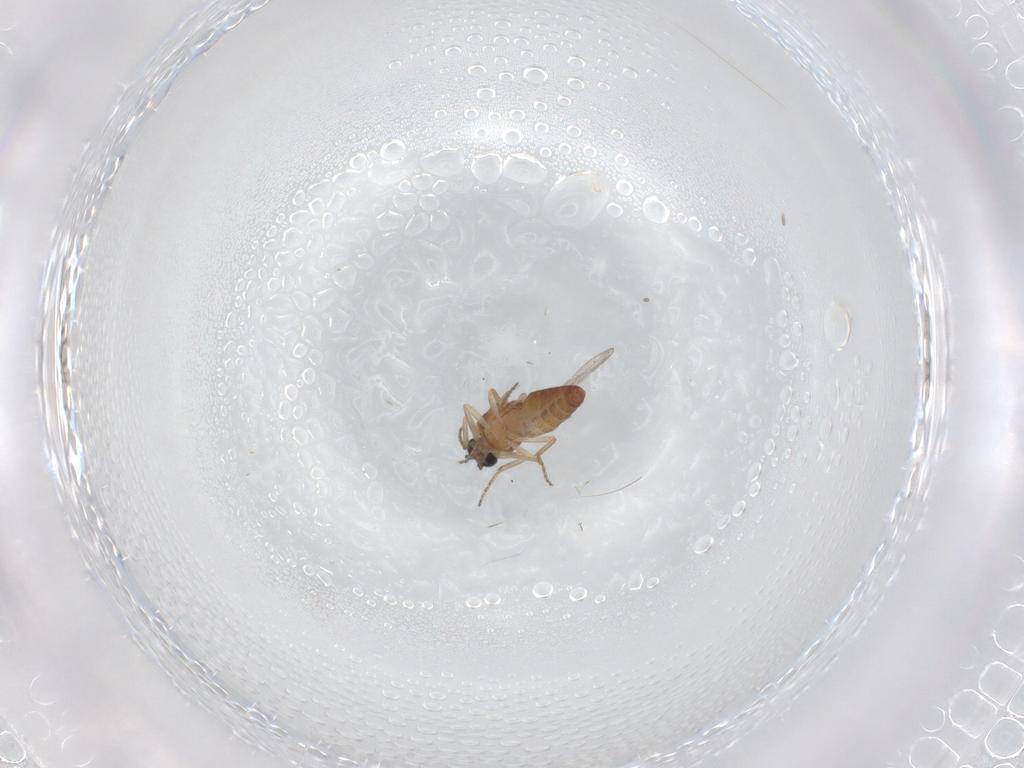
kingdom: Animalia
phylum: Arthropoda
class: Insecta
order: Diptera
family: Ceratopogonidae
